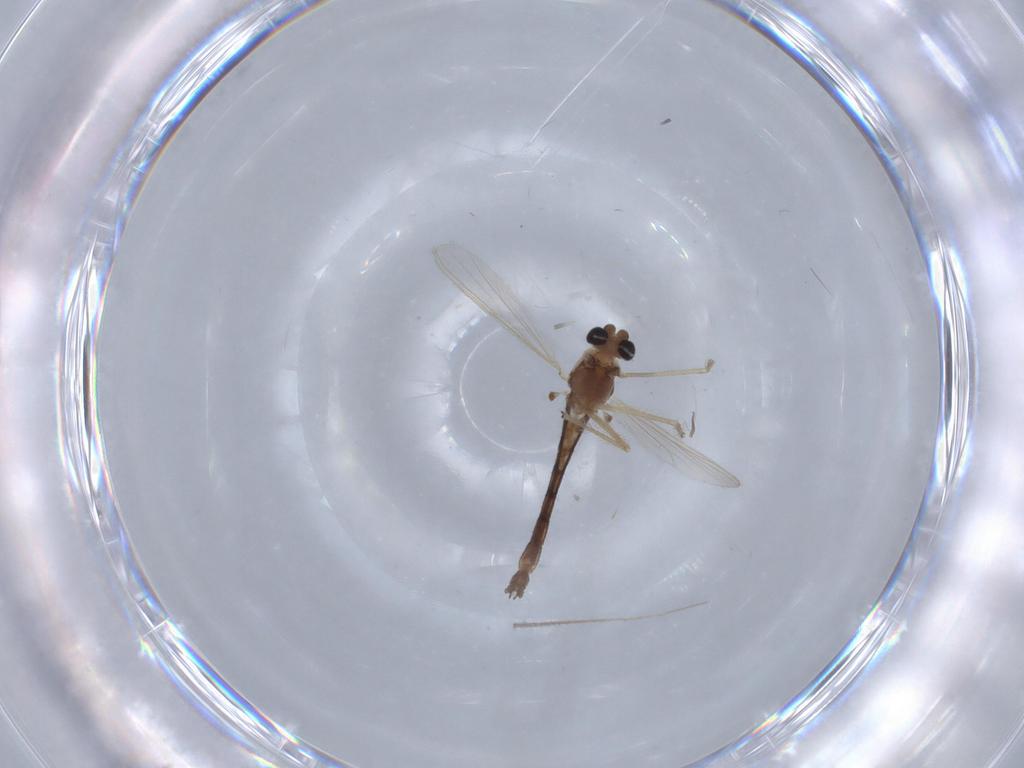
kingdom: Animalia
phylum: Arthropoda
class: Insecta
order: Diptera
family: Chironomidae
